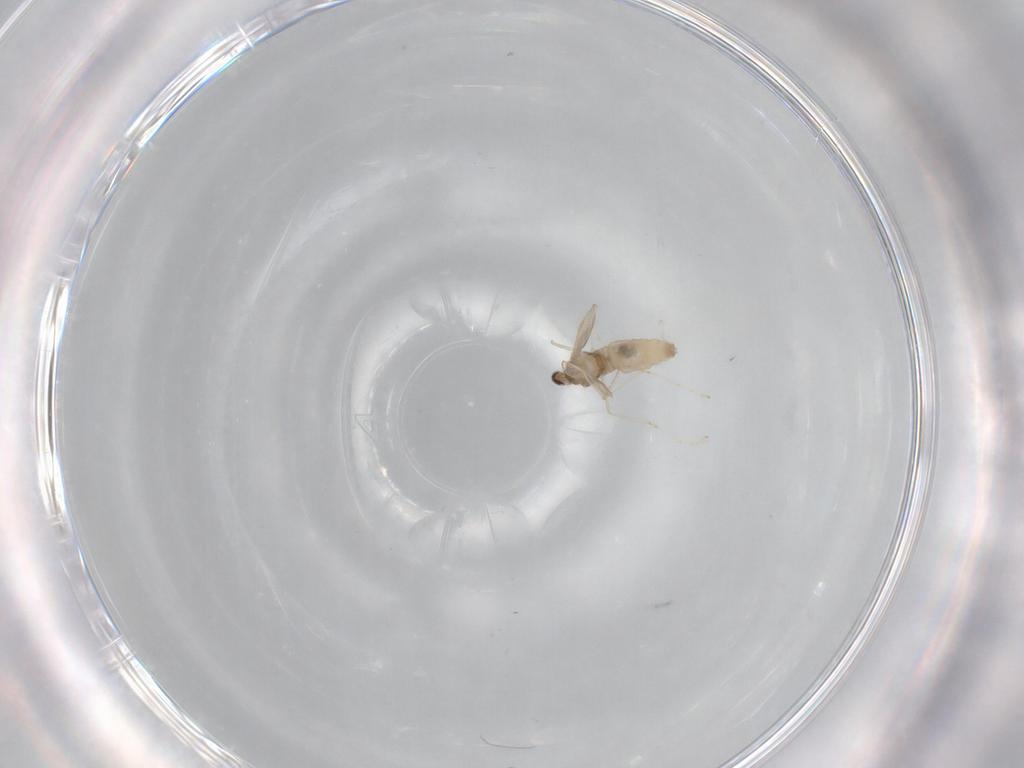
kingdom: Animalia
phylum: Arthropoda
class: Insecta
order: Diptera
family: Cecidomyiidae
